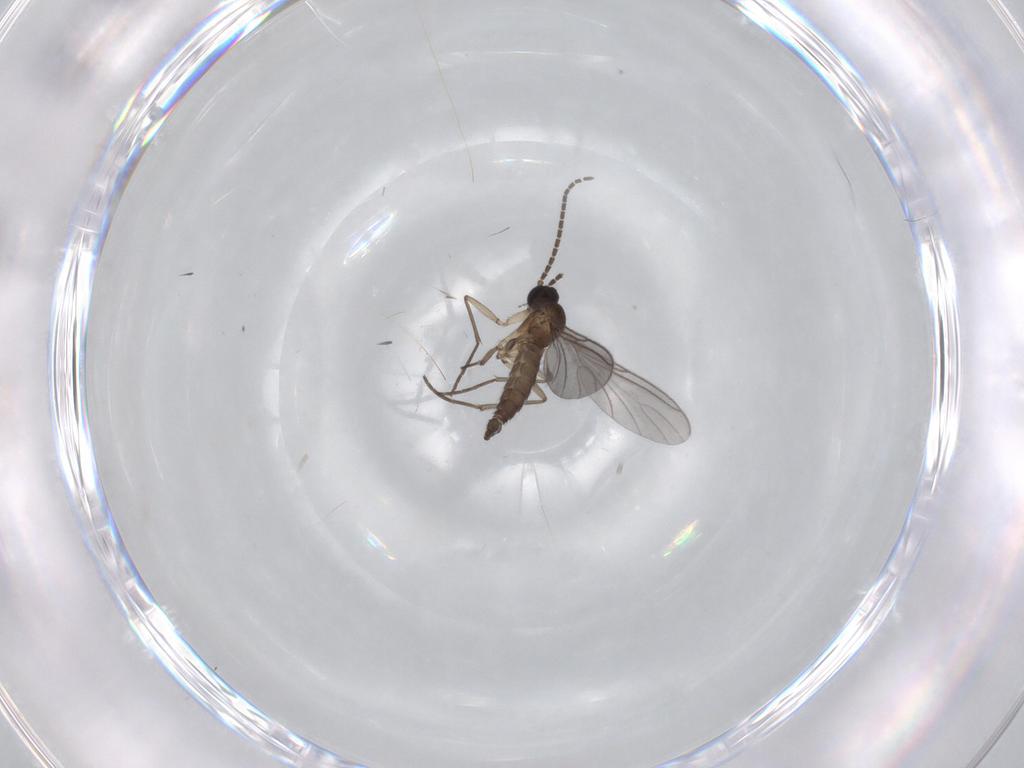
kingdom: Animalia
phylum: Arthropoda
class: Insecta
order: Diptera
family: Sciaridae
